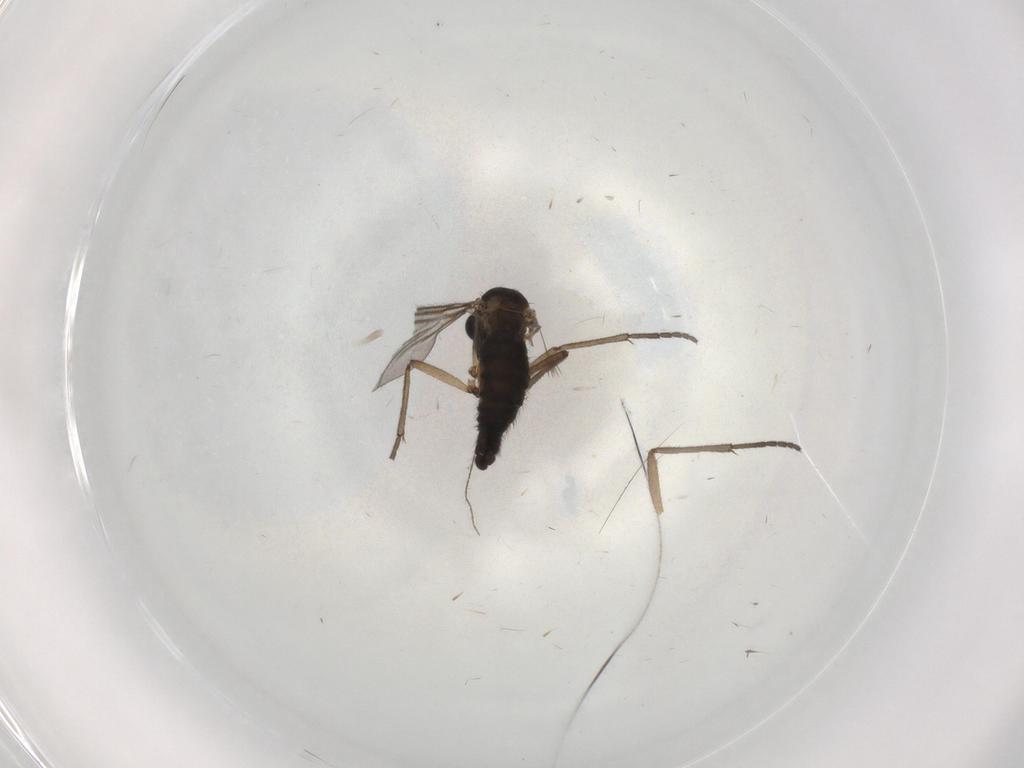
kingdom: Animalia
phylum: Arthropoda
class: Insecta
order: Diptera
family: Sciaridae
